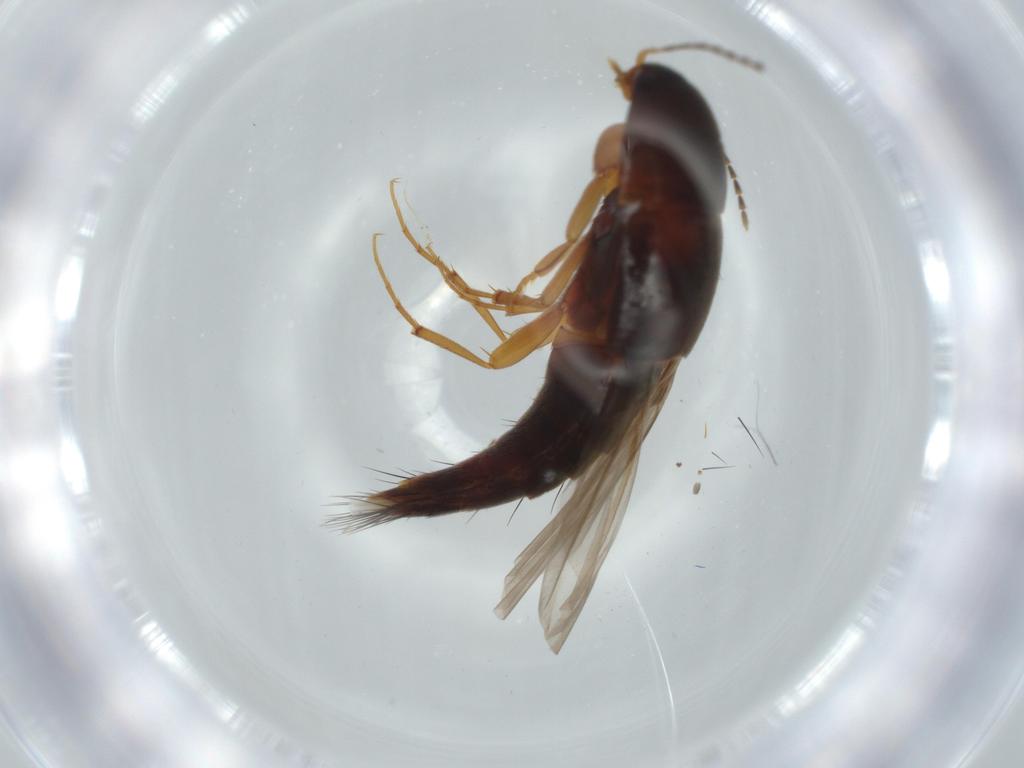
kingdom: Animalia
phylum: Arthropoda
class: Insecta
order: Coleoptera
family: Staphylinidae
